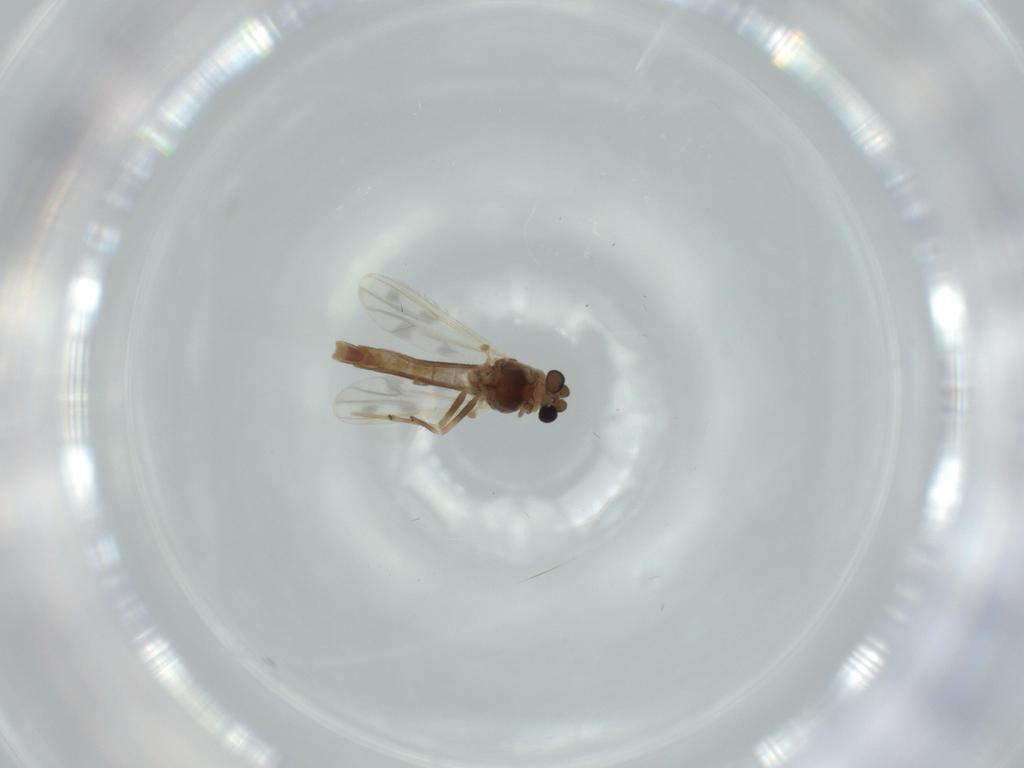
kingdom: Animalia
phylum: Arthropoda
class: Insecta
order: Diptera
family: Chironomidae
